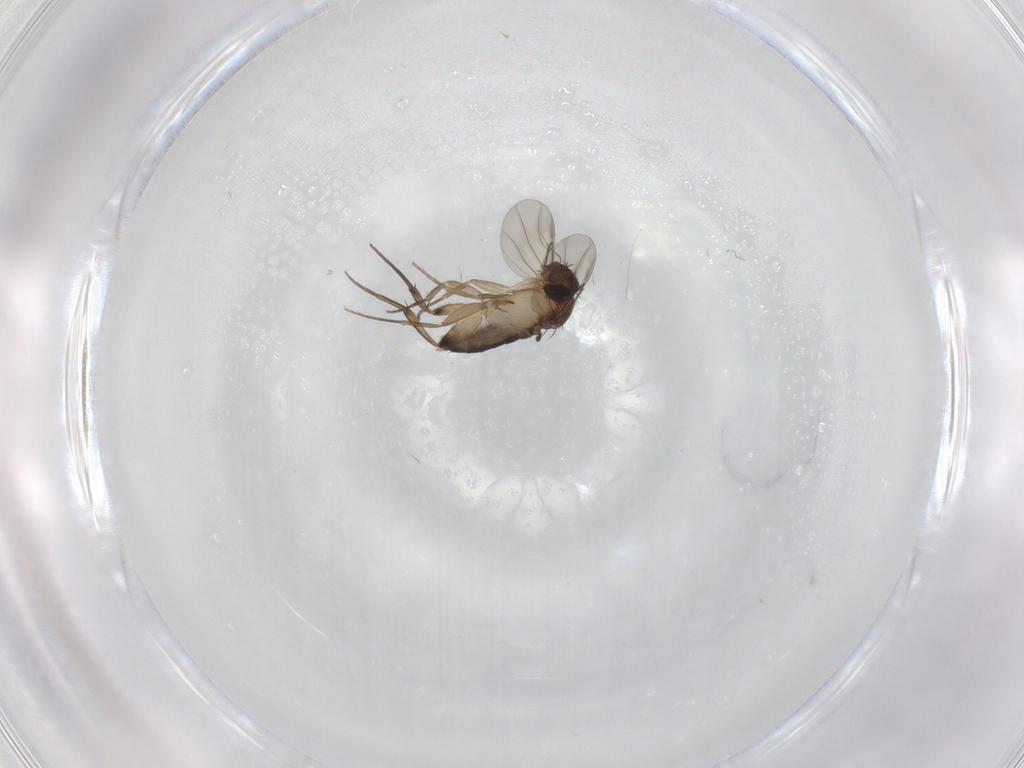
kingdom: Animalia
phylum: Arthropoda
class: Insecta
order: Diptera
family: Phoridae
